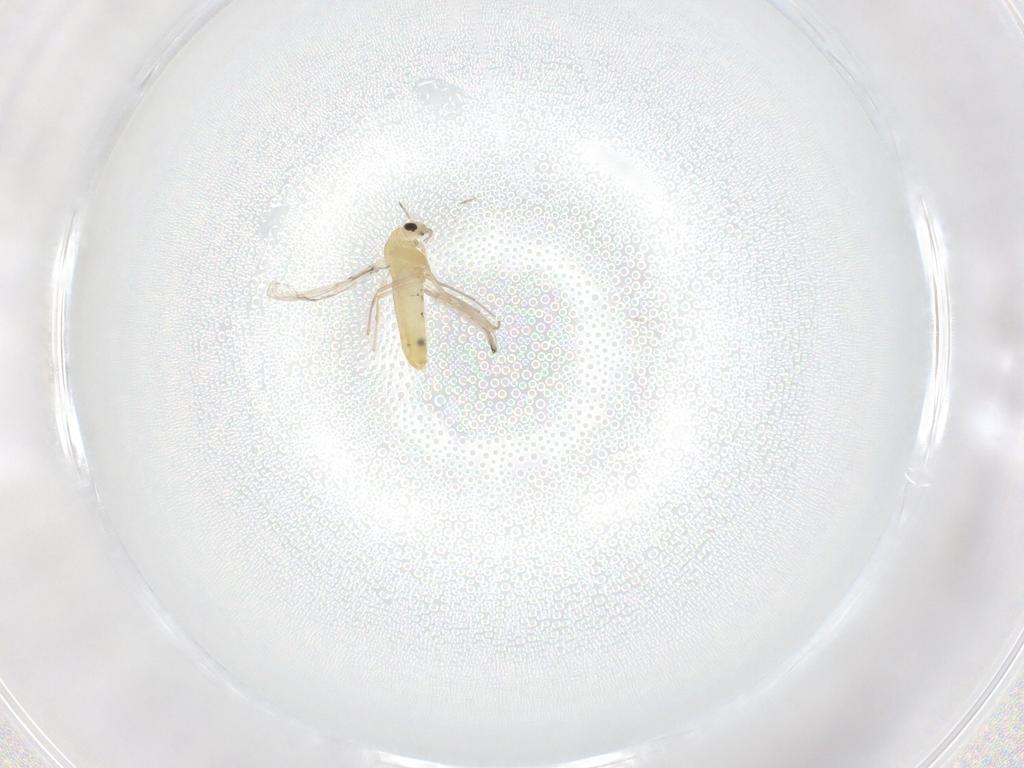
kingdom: Animalia
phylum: Arthropoda
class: Insecta
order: Diptera
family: Chironomidae
